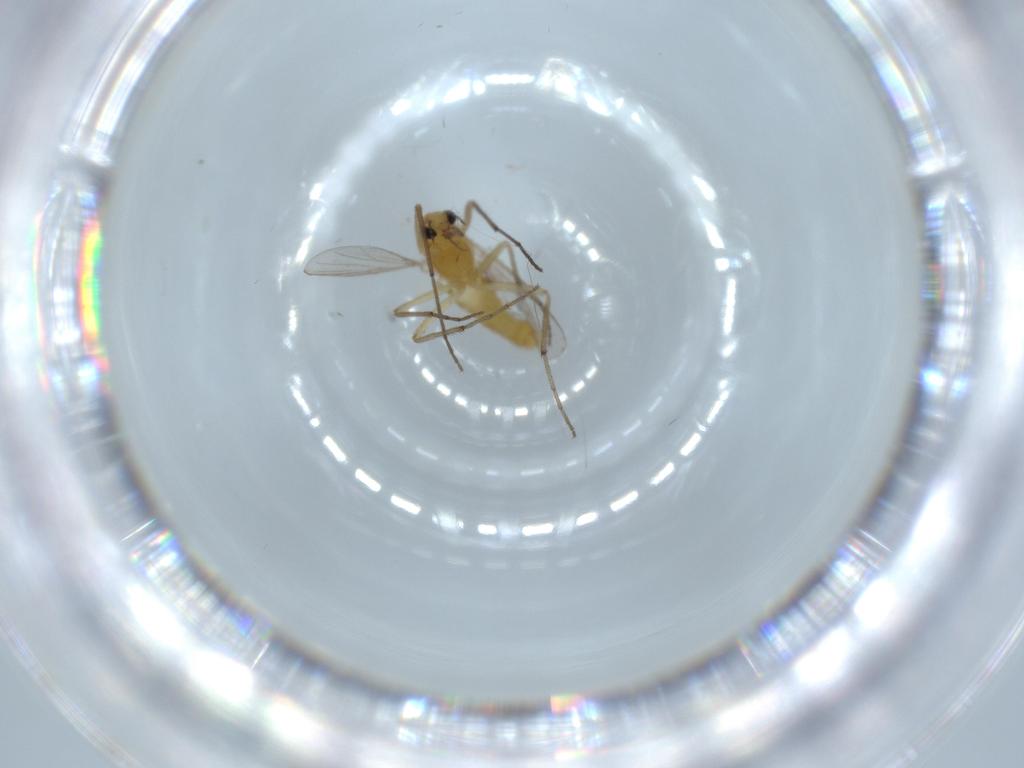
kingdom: Animalia
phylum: Arthropoda
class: Insecta
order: Diptera
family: Chironomidae
